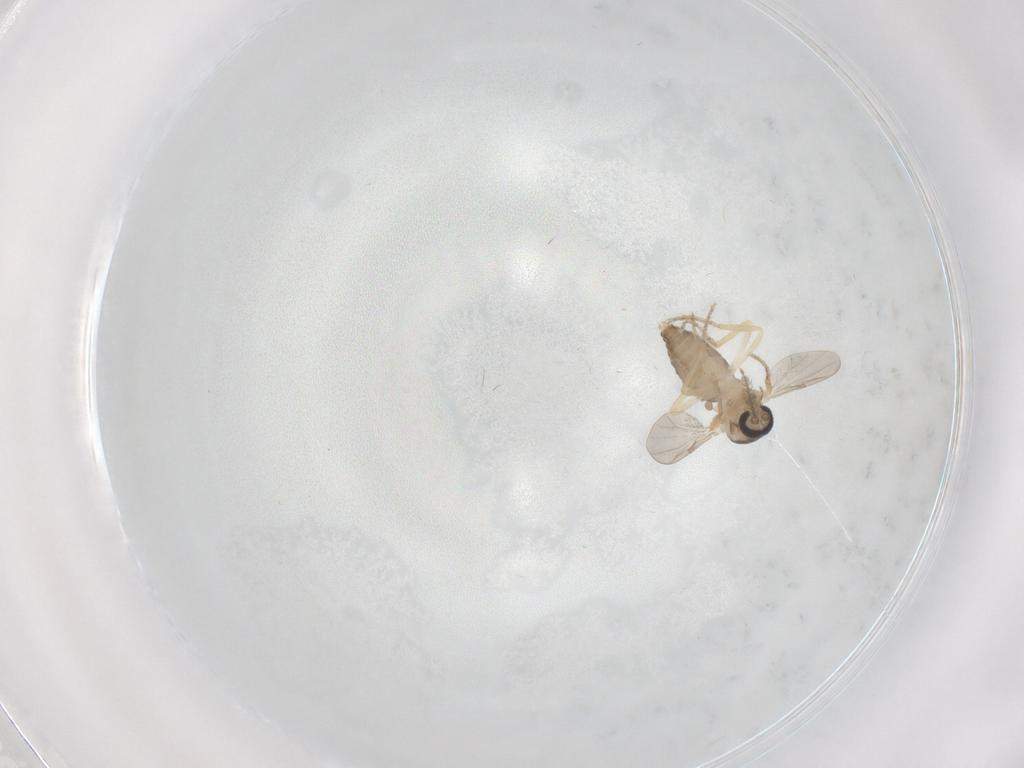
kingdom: Animalia
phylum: Arthropoda
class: Insecta
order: Diptera
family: Ceratopogonidae
